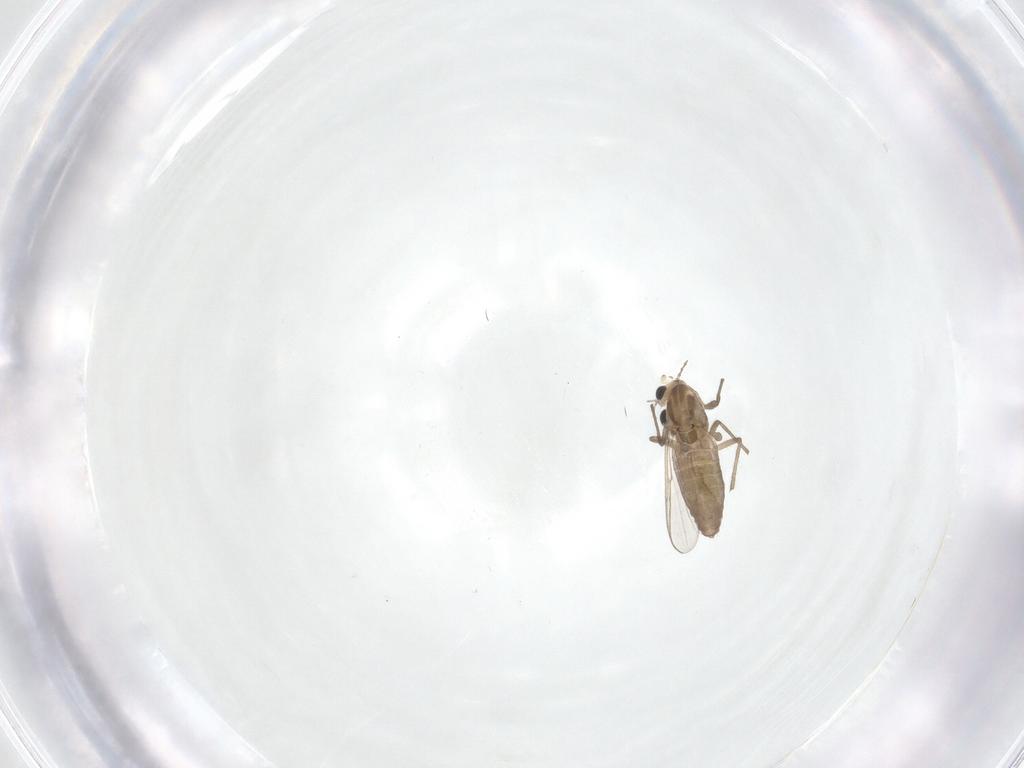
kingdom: Animalia
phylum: Arthropoda
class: Insecta
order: Diptera
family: Chironomidae
